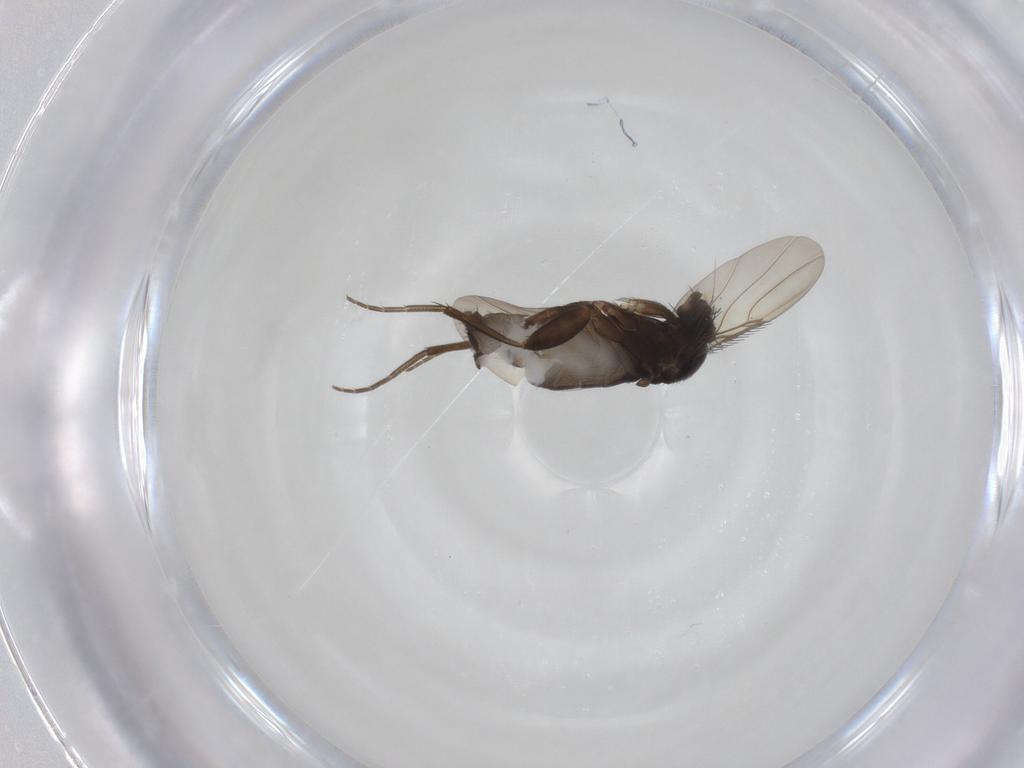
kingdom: Animalia
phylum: Arthropoda
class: Insecta
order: Diptera
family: Phoridae
